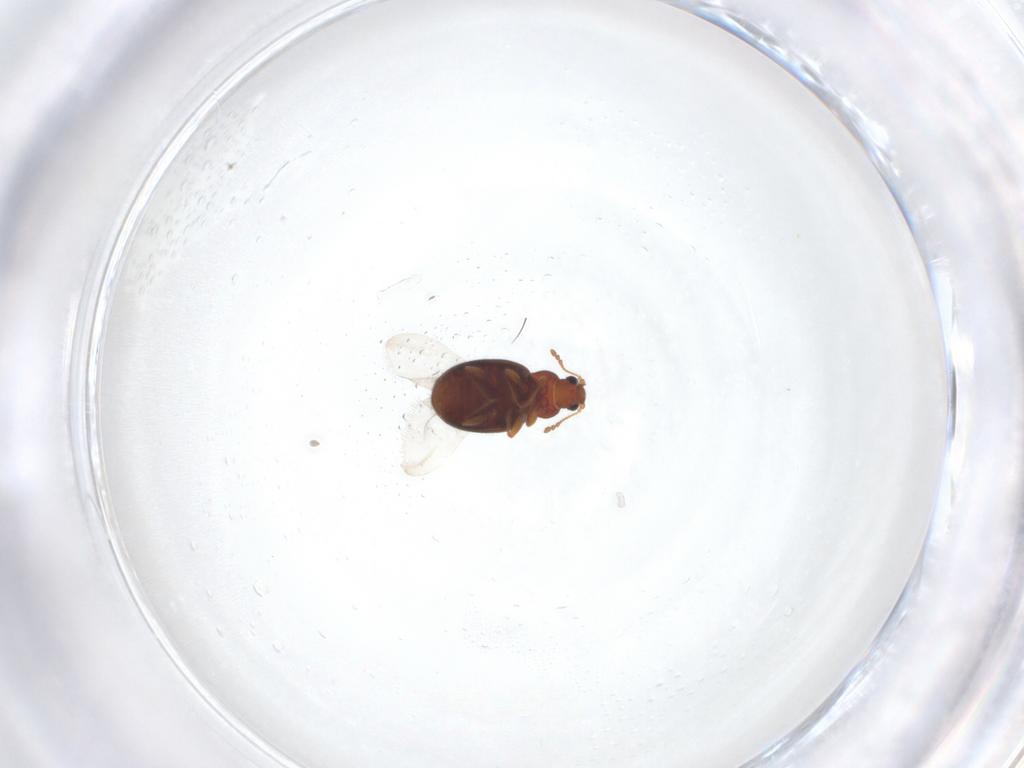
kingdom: Animalia
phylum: Arthropoda
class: Insecta
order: Coleoptera
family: Latridiidae
